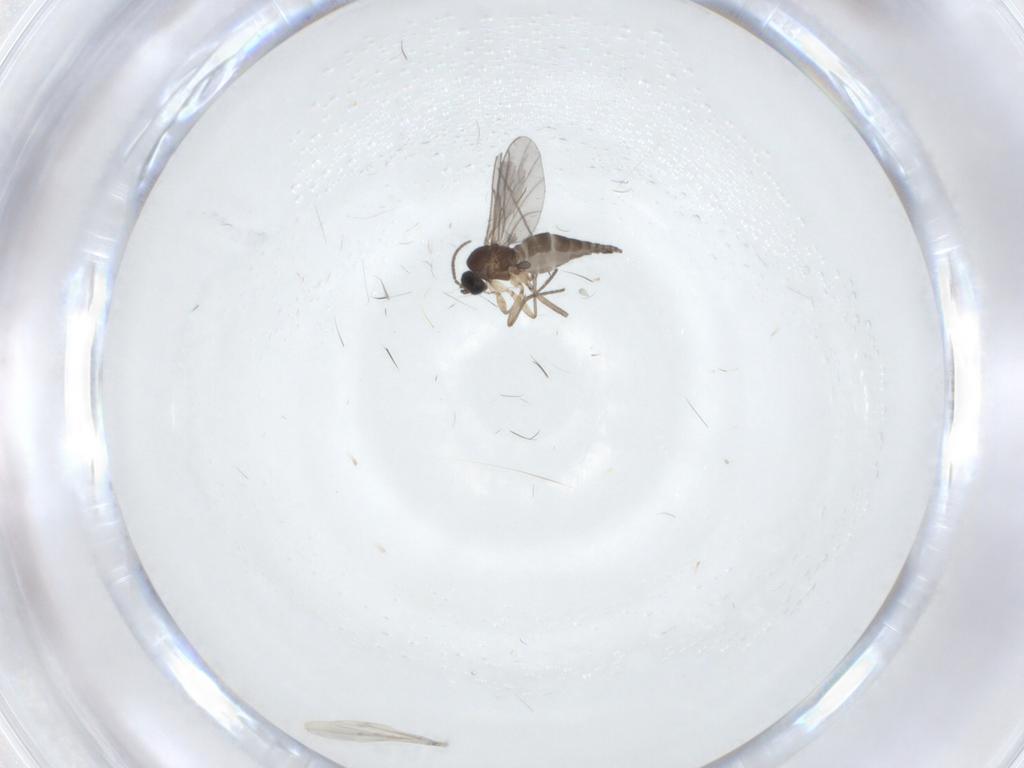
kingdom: Animalia
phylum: Arthropoda
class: Insecta
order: Diptera
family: Sciaridae
